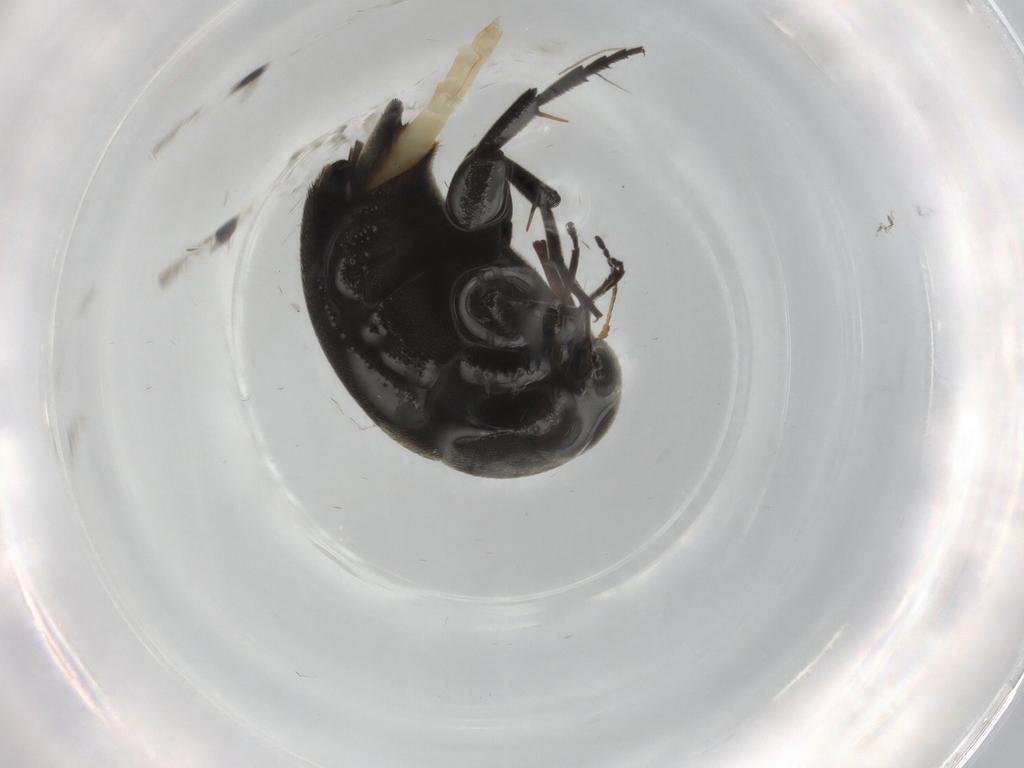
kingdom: Animalia
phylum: Arthropoda
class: Insecta
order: Coleoptera
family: Mordellidae
